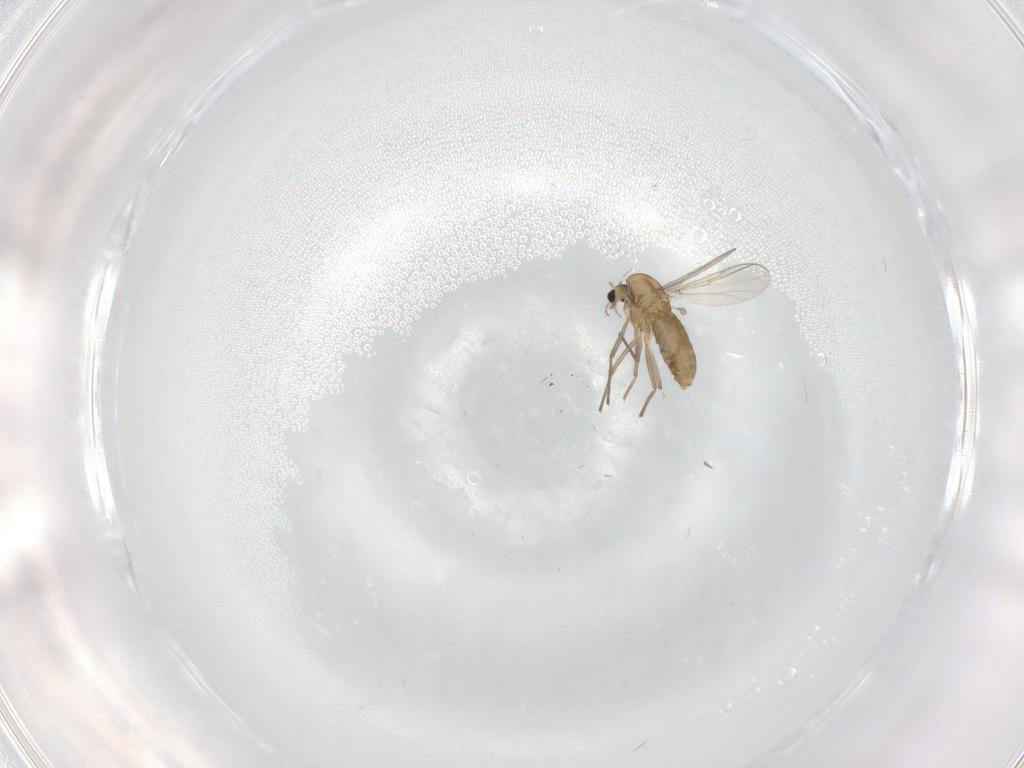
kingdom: Animalia
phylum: Arthropoda
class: Insecta
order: Diptera
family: Chironomidae
